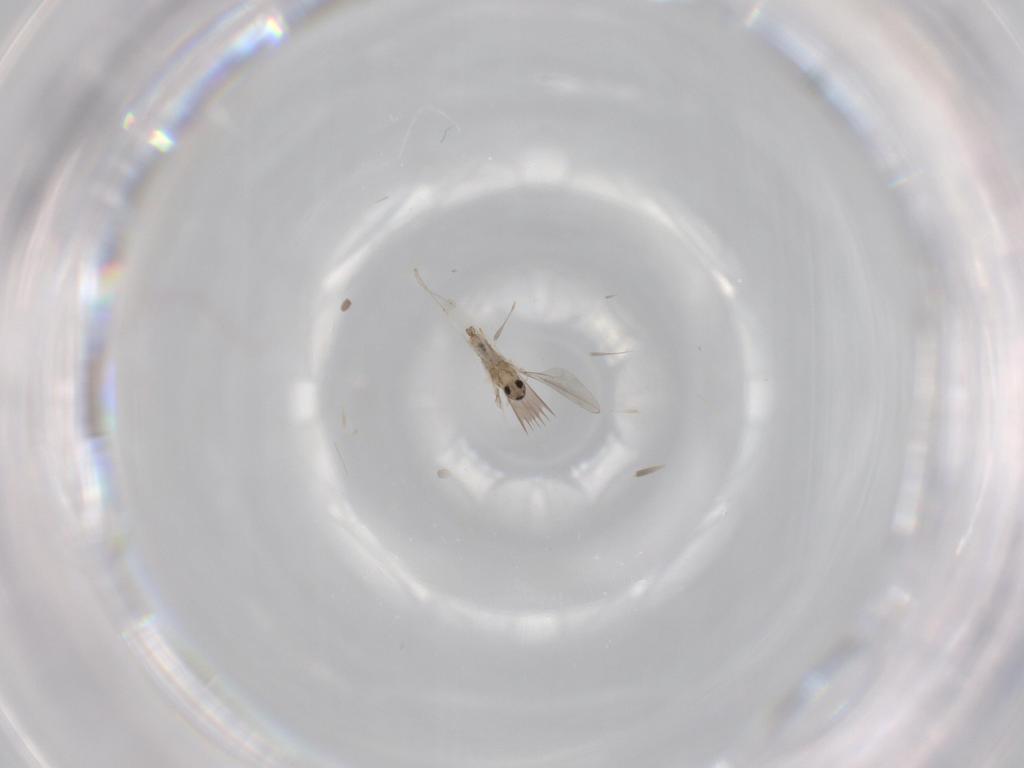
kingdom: Animalia
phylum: Arthropoda
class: Insecta
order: Diptera
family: Cecidomyiidae
